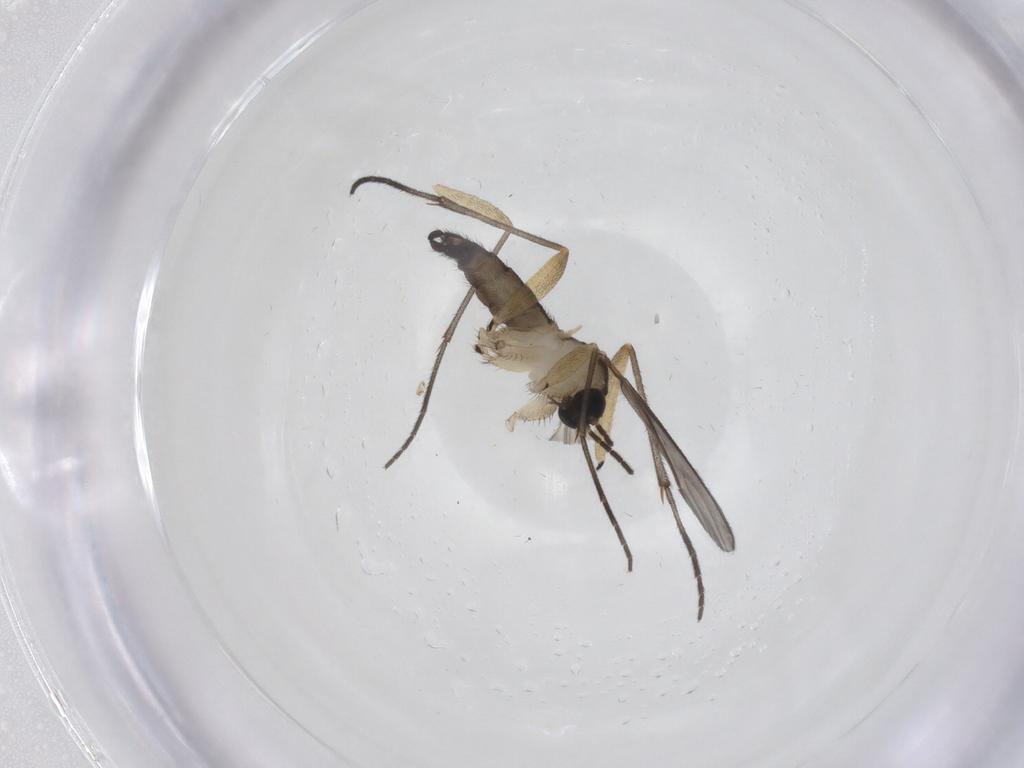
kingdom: Animalia
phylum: Arthropoda
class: Insecta
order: Diptera
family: Sciaridae
